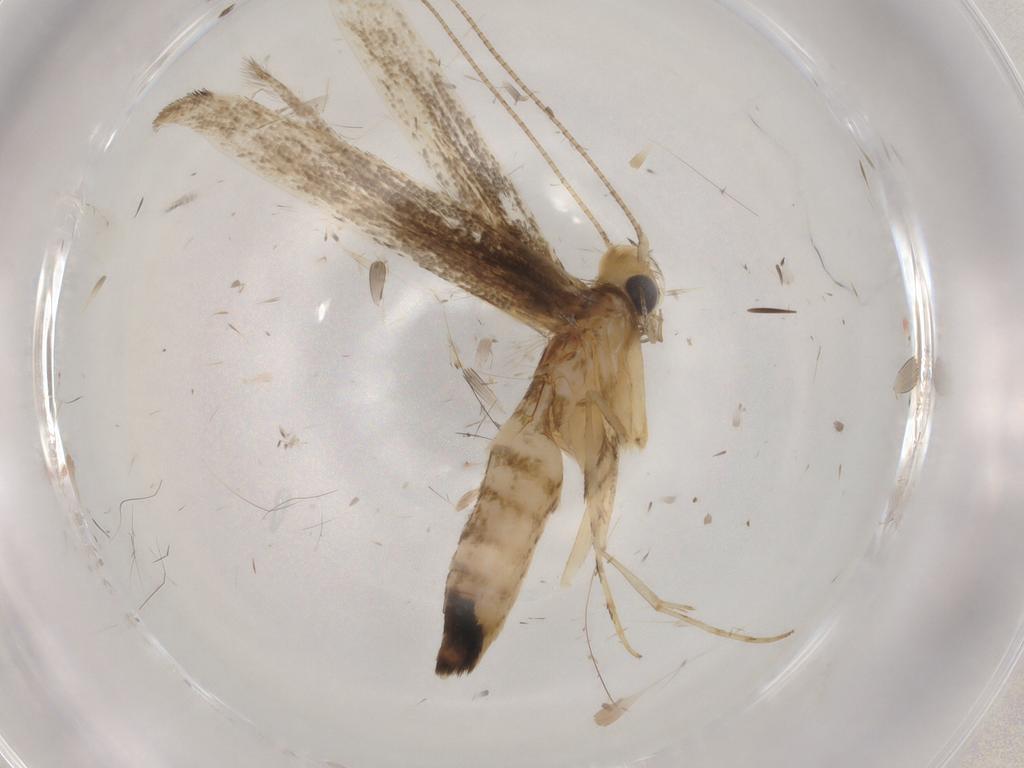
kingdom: Animalia
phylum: Arthropoda
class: Insecta
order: Lepidoptera
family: Gracillariidae
